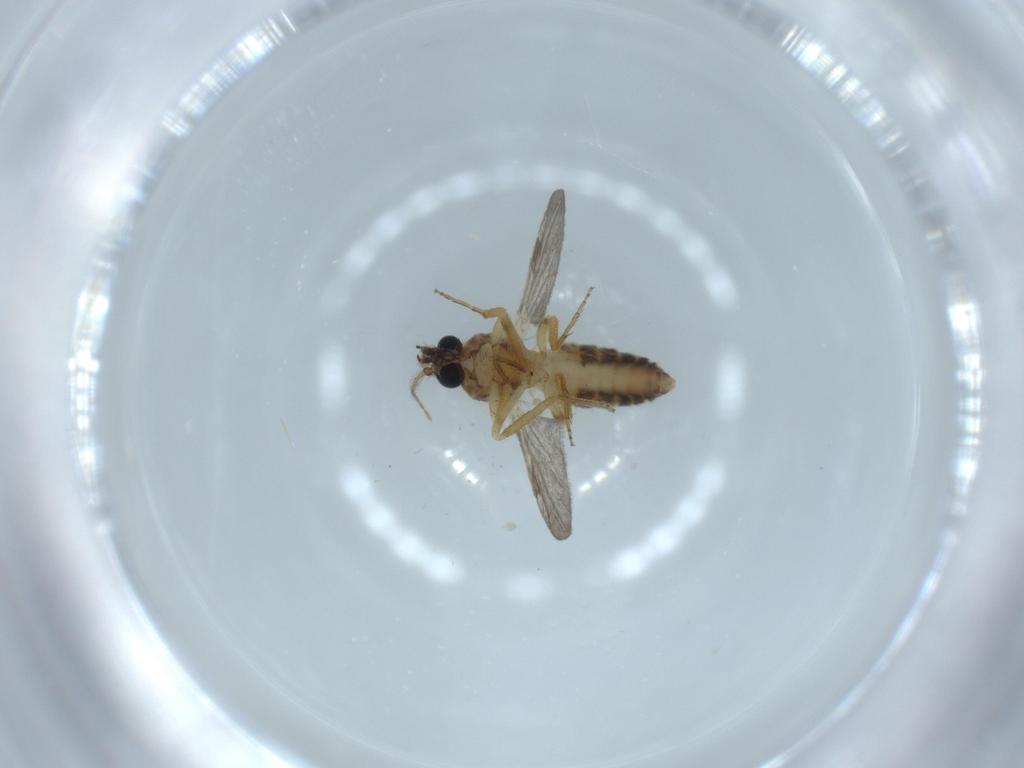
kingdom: Animalia
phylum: Arthropoda
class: Insecta
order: Diptera
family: Ceratopogonidae
